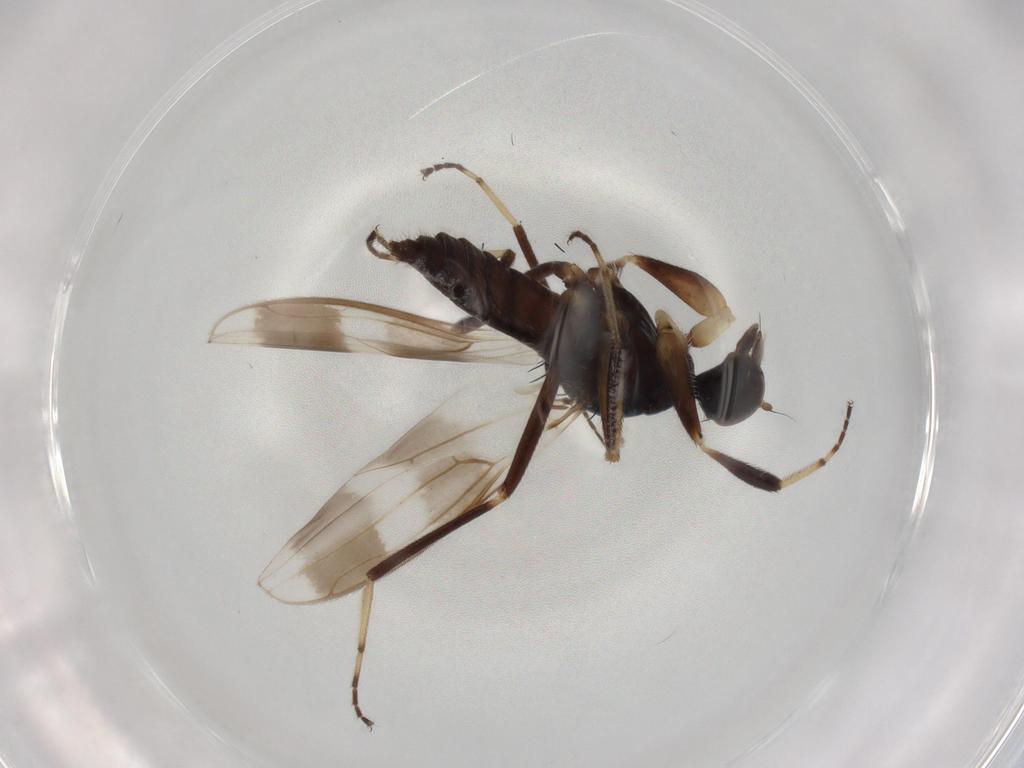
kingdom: Animalia
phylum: Arthropoda
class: Insecta
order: Diptera
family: Hybotidae
